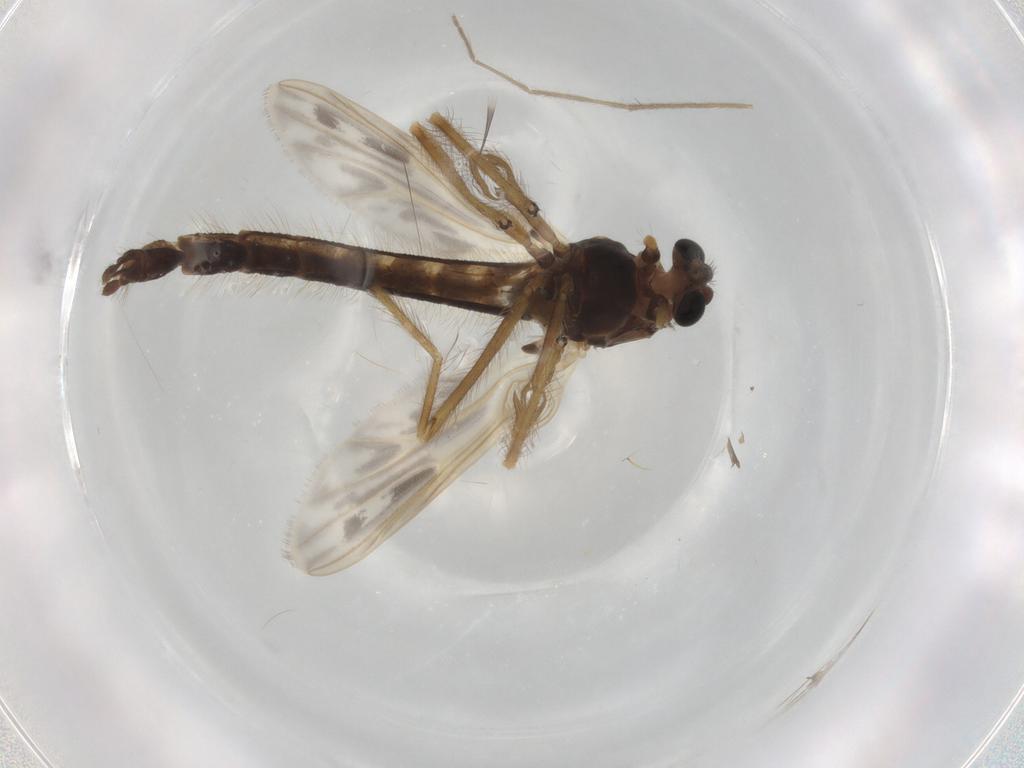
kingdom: Animalia
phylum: Arthropoda
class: Insecta
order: Diptera
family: Chironomidae
